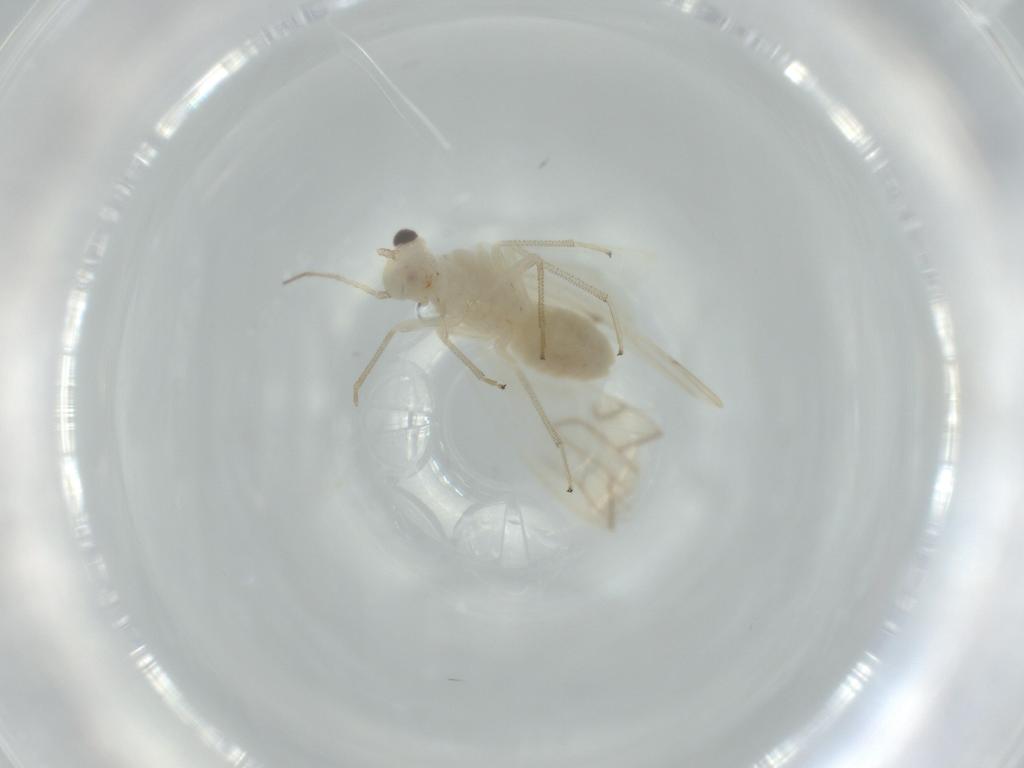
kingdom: Animalia
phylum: Arthropoda
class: Insecta
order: Psocodea
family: Caeciliusidae
